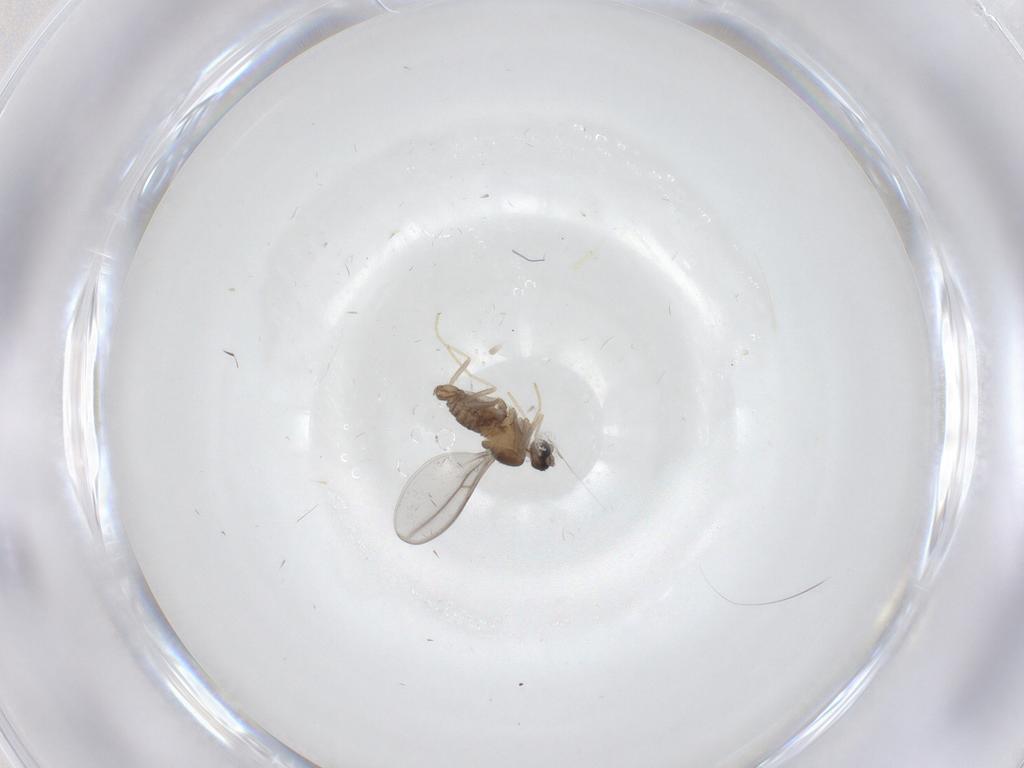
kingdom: Animalia
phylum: Arthropoda
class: Insecta
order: Diptera
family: Cecidomyiidae
